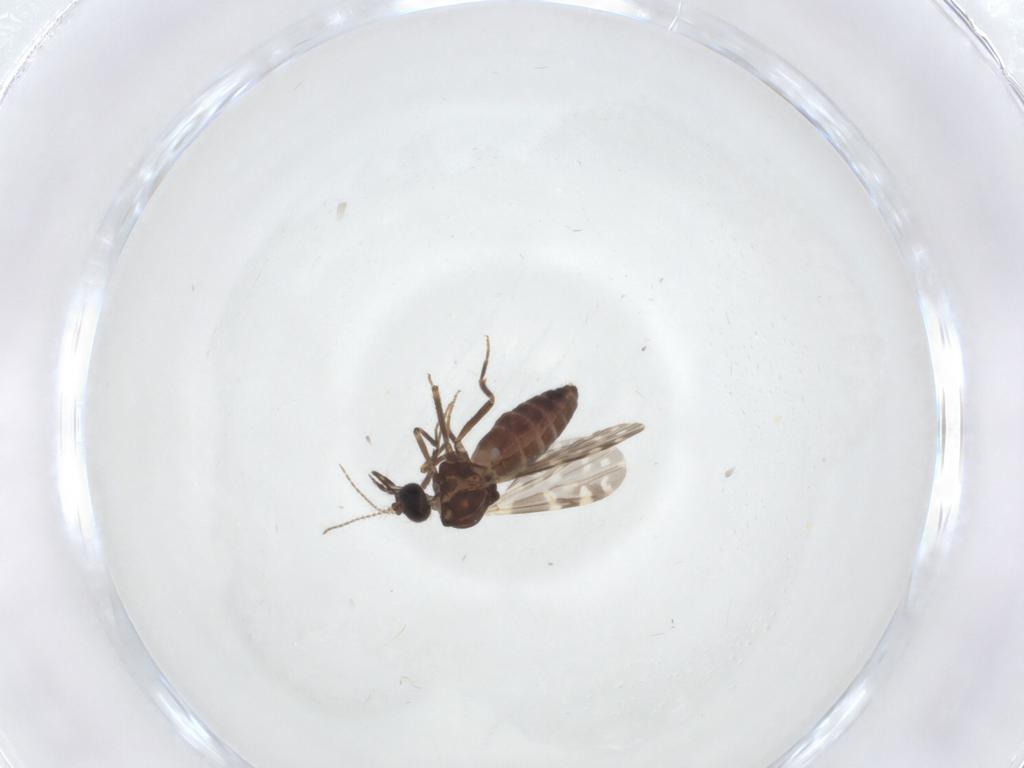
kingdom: Animalia
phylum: Arthropoda
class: Insecta
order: Diptera
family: Ceratopogonidae
